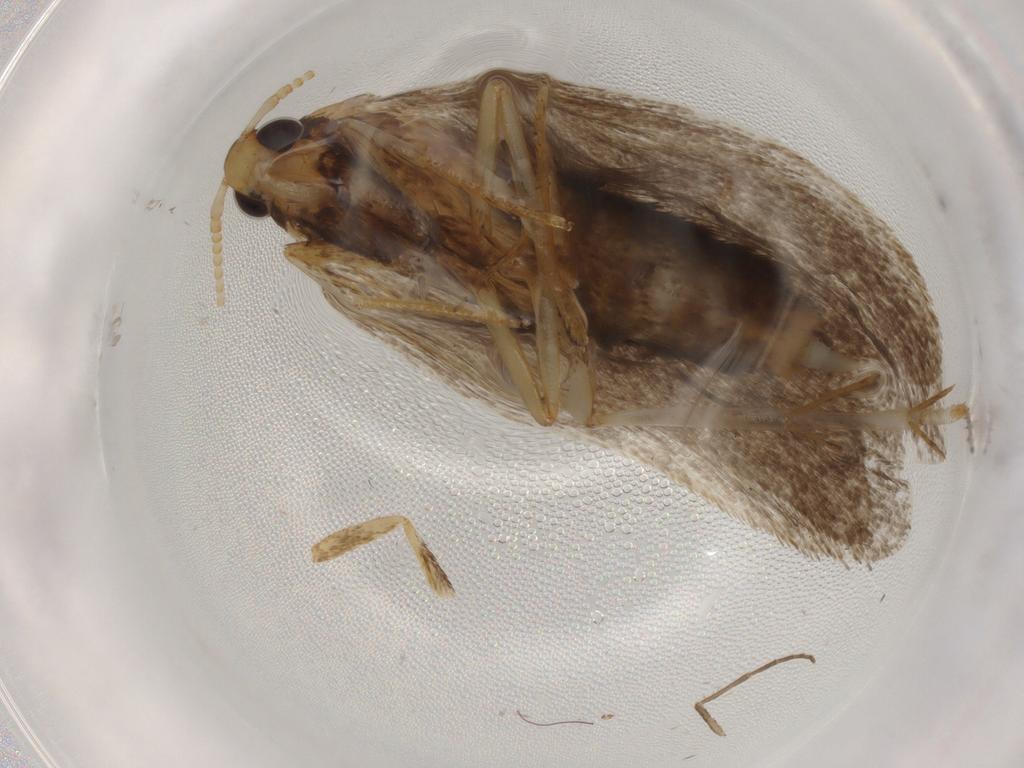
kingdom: Animalia
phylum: Arthropoda
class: Insecta
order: Lepidoptera
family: Lecithoceridae
